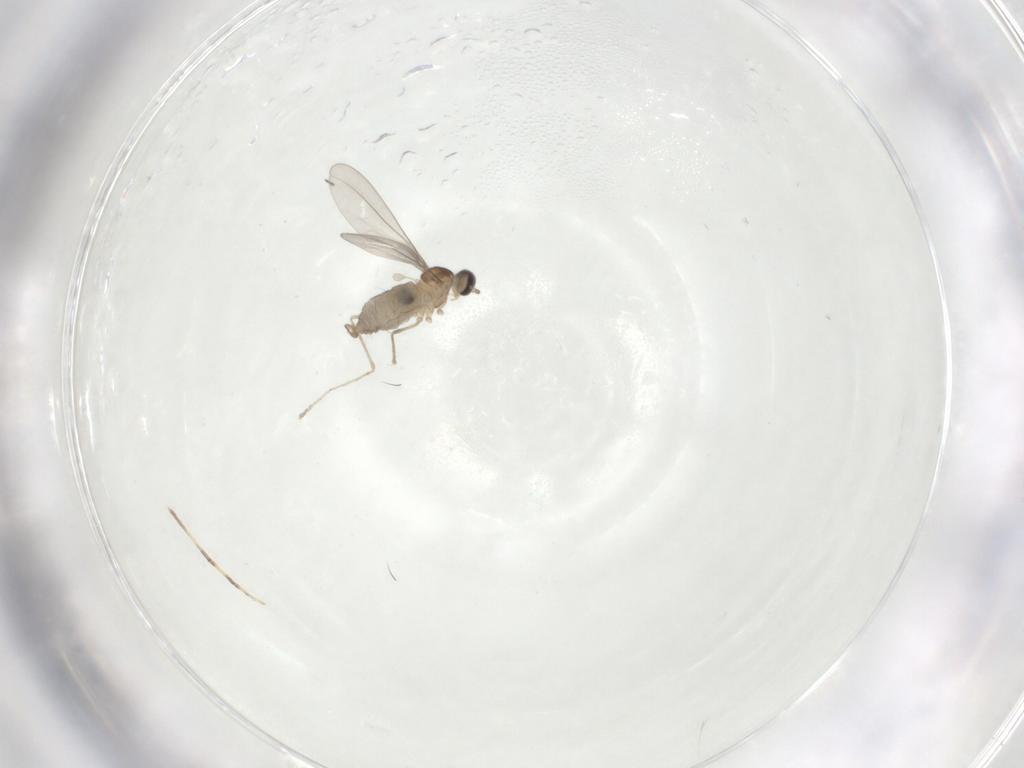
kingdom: Animalia
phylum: Arthropoda
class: Insecta
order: Diptera
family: Cecidomyiidae
